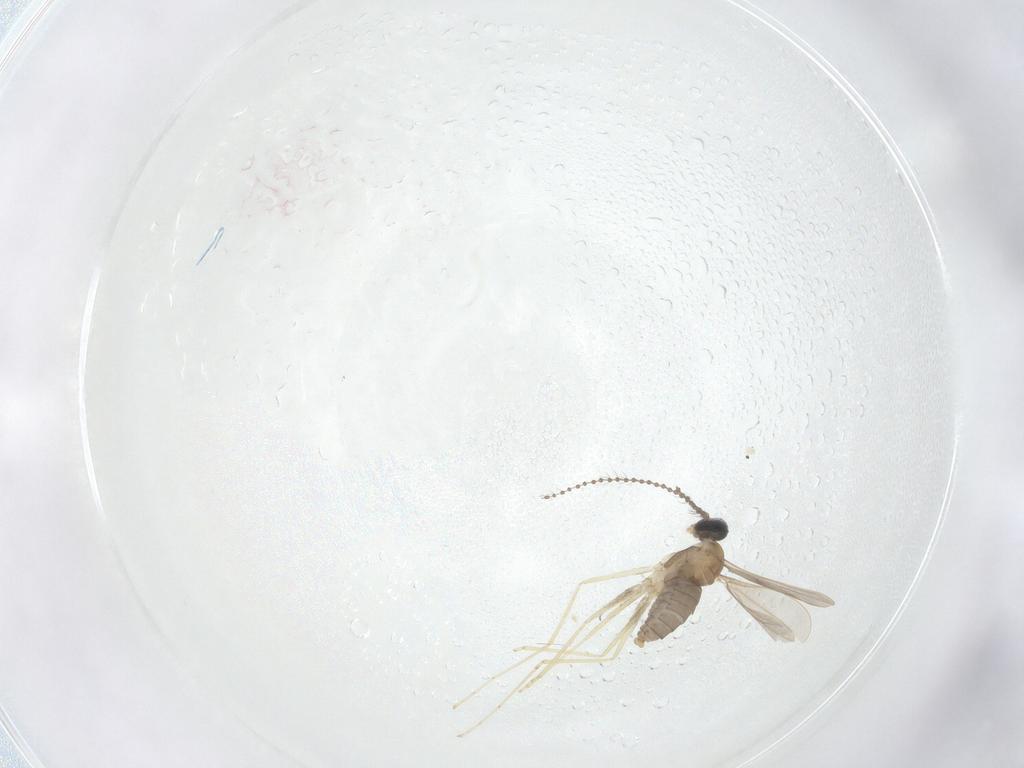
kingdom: Animalia
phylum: Arthropoda
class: Insecta
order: Diptera
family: Cecidomyiidae
